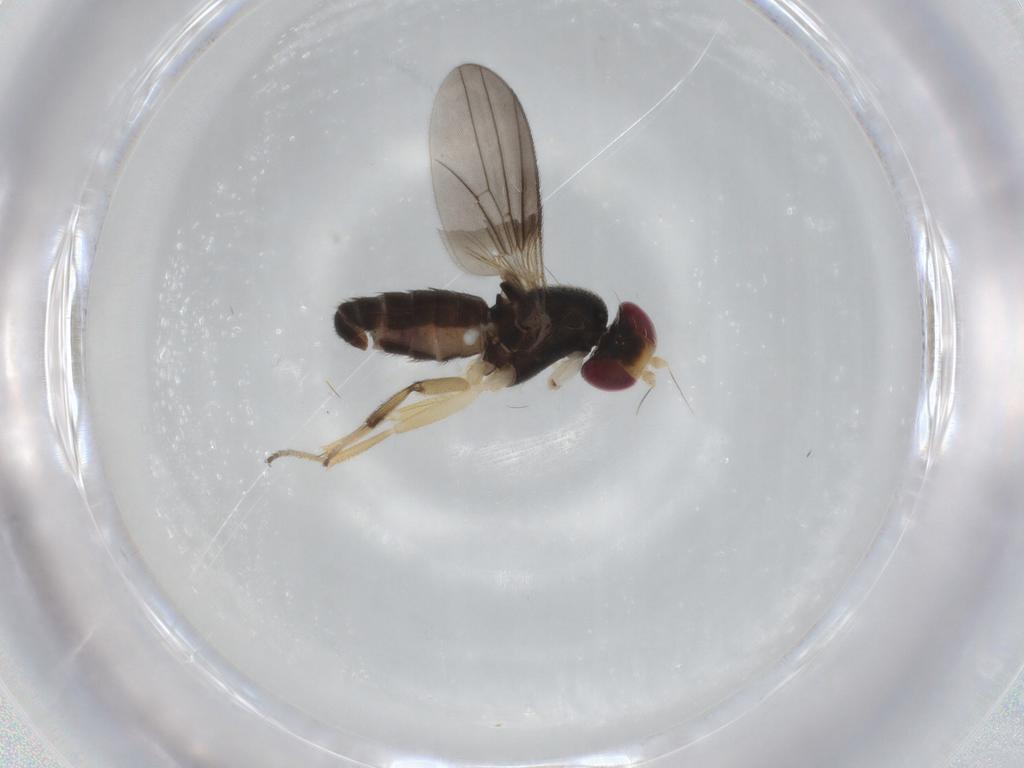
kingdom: Animalia
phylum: Arthropoda
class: Insecta
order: Diptera
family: Clusiidae
